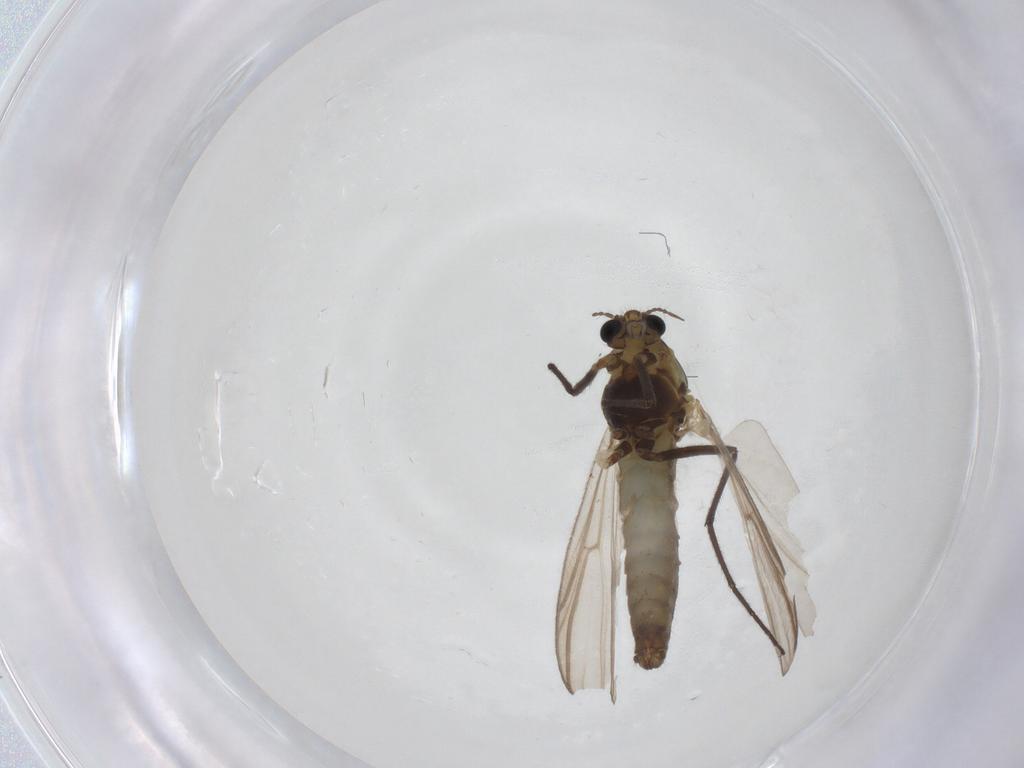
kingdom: Animalia
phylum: Arthropoda
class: Insecta
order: Diptera
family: Chironomidae
